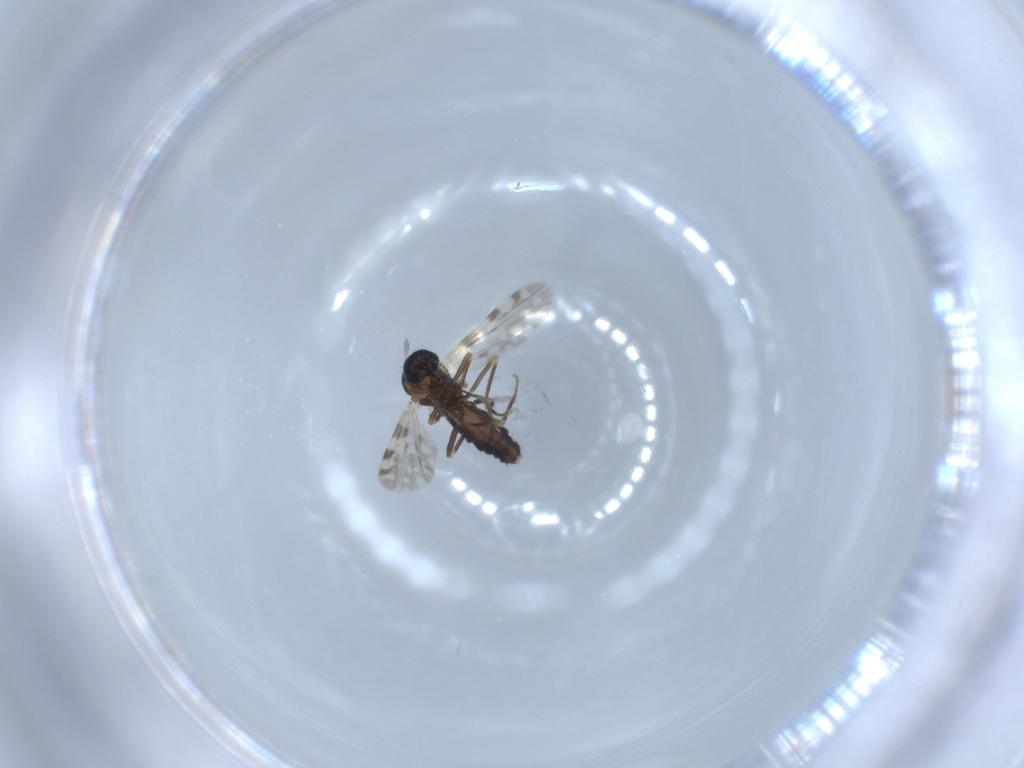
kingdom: Animalia
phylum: Arthropoda
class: Insecta
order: Diptera
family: Ceratopogonidae
